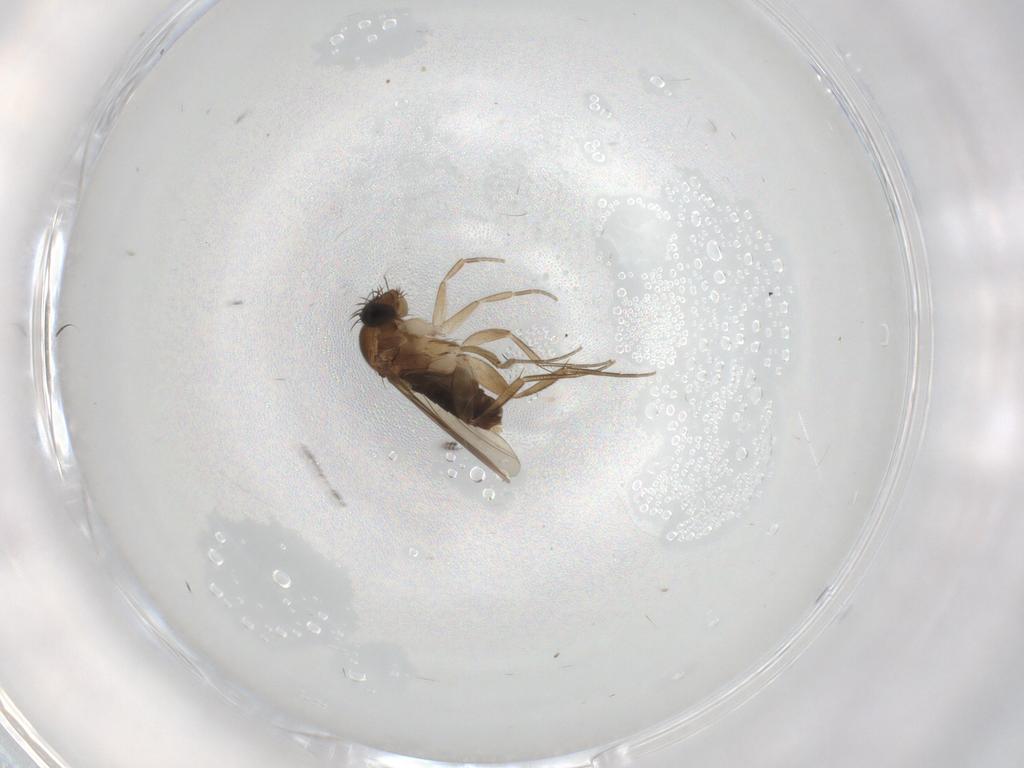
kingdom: Animalia
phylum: Arthropoda
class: Insecta
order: Diptera
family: Phoridae
